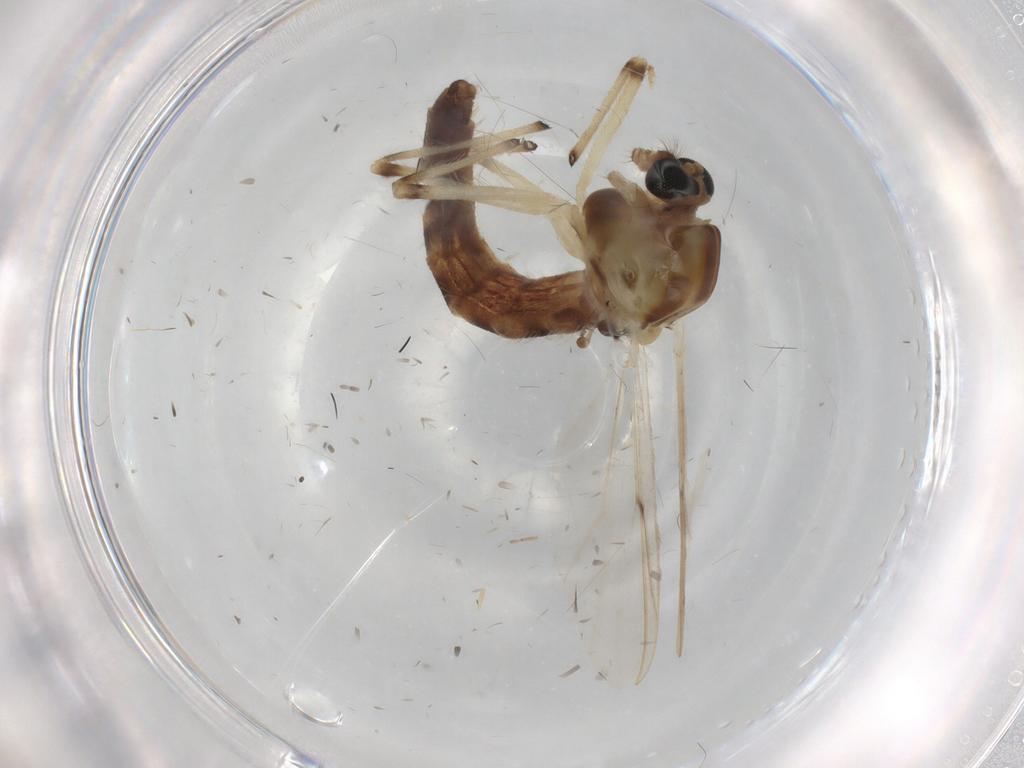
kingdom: Animalia
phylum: Arthropoda
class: Insecta
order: Diptera
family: Chironomidae
